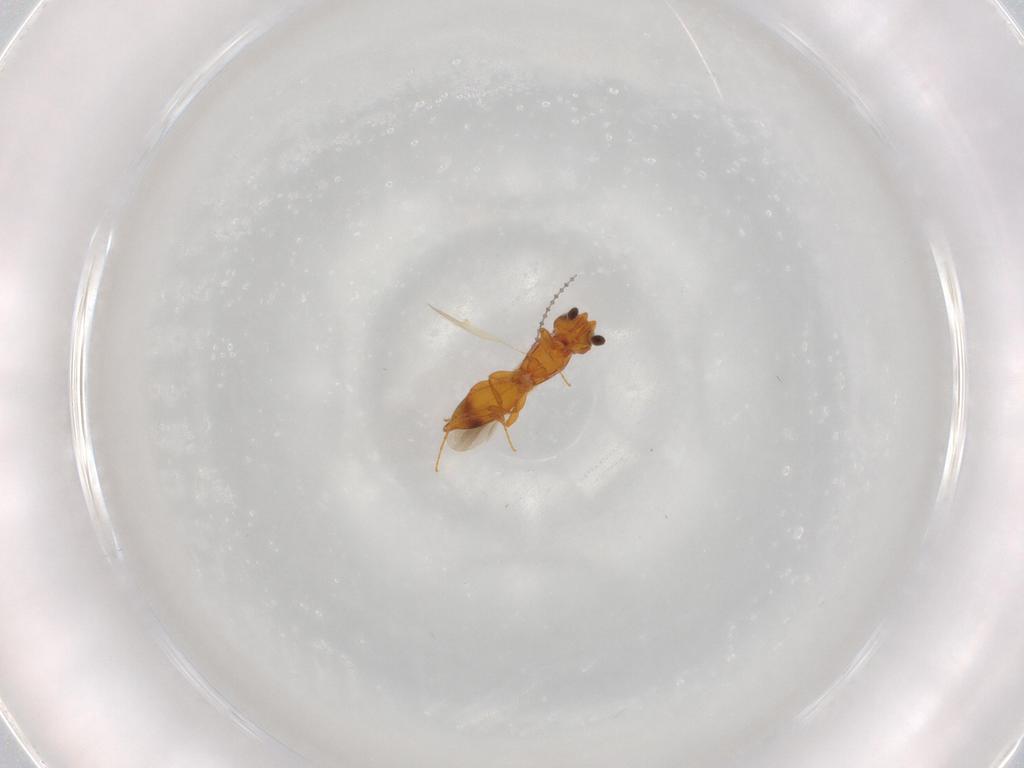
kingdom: Animalia
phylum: Arthropoda
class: Insecta
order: Hymenoptera
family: Platygastridae
